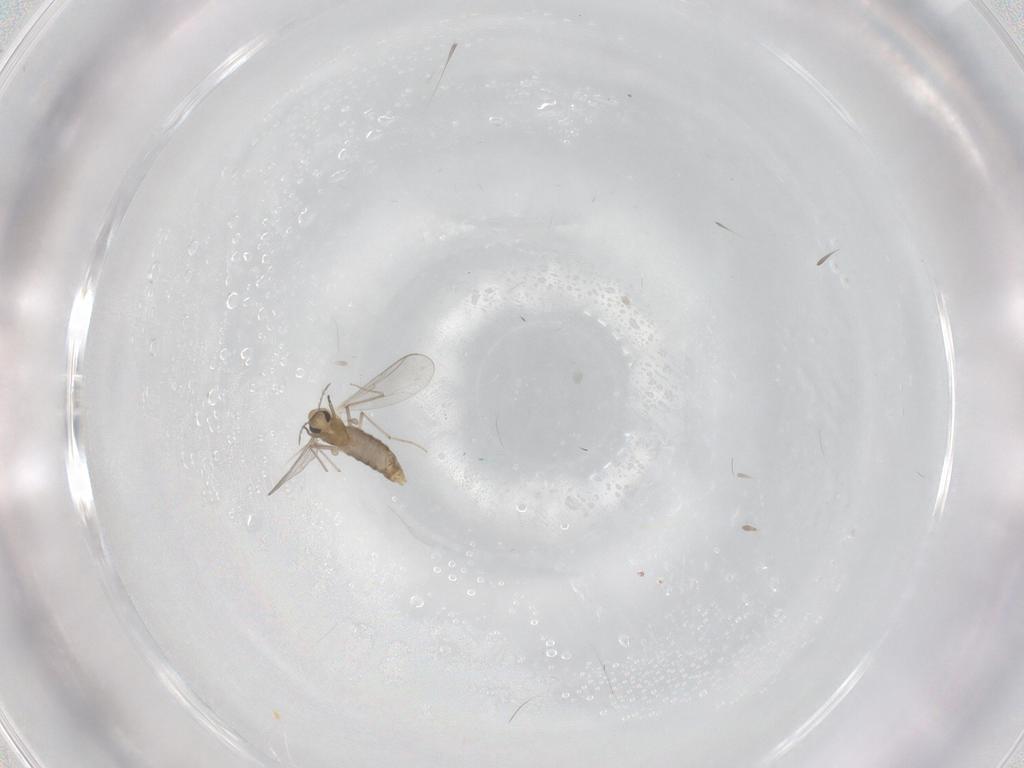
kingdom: Animalia
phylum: Arthropoda
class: Insecta
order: Diptera
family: Chironomidae
